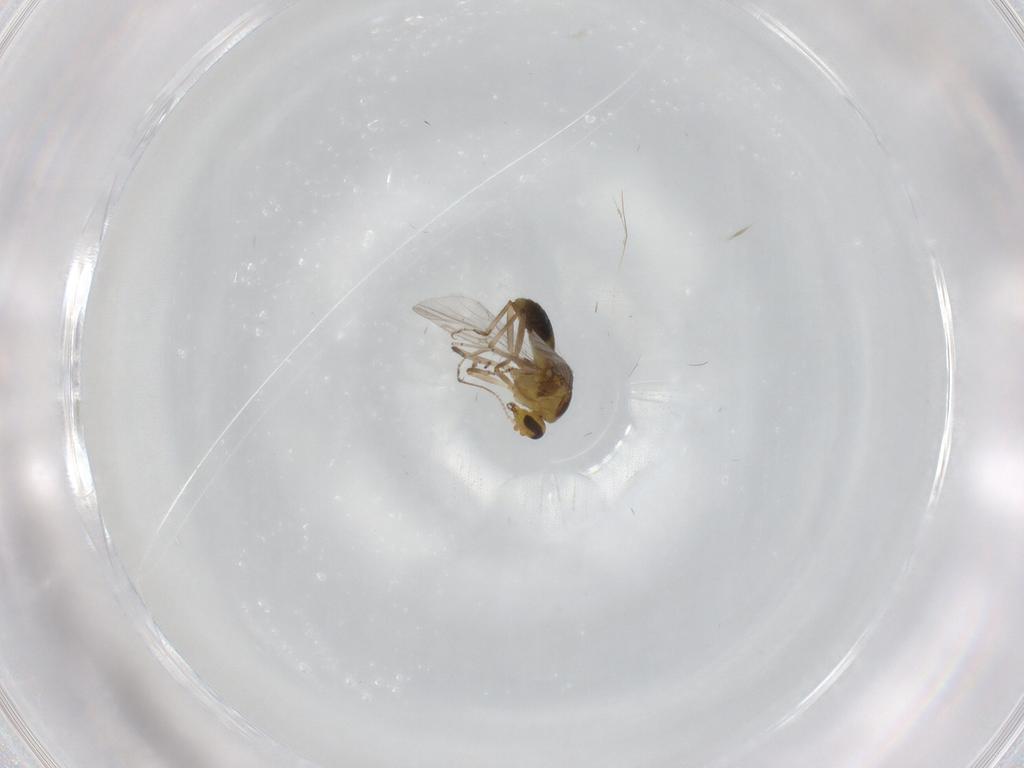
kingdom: Animalia
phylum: Arthropoda
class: Insecta
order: Diptera
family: Ceratopogonidae
